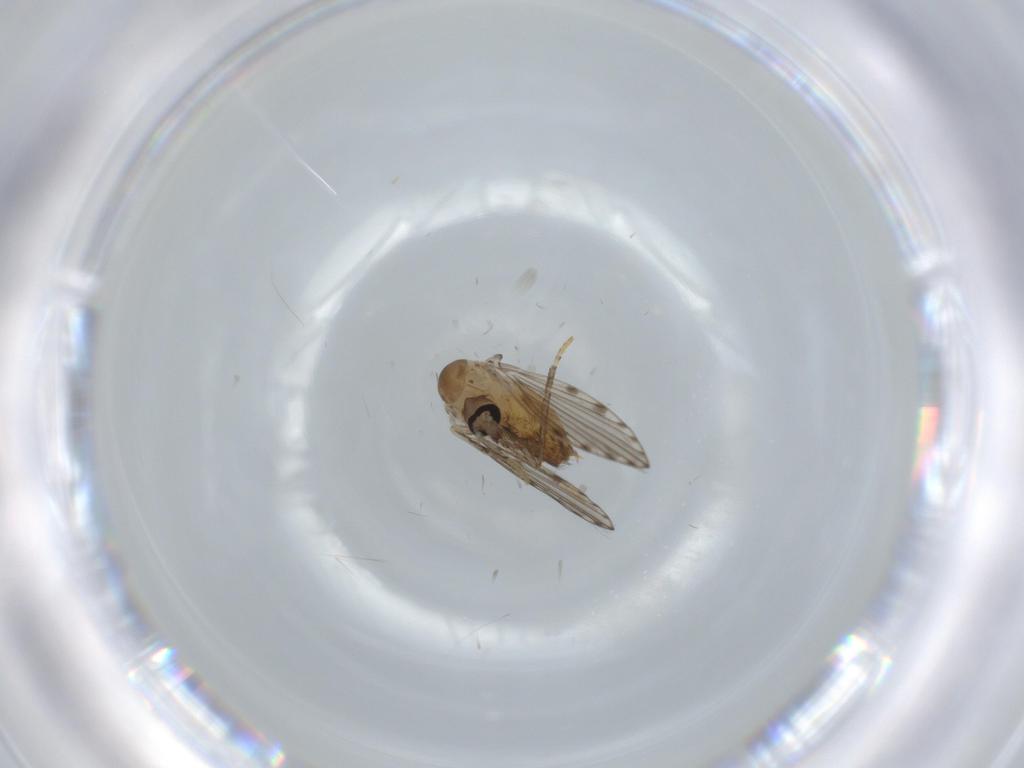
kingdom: Animalia
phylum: Arthropoda
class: Insecta
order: Diptera
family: Psychodidae
